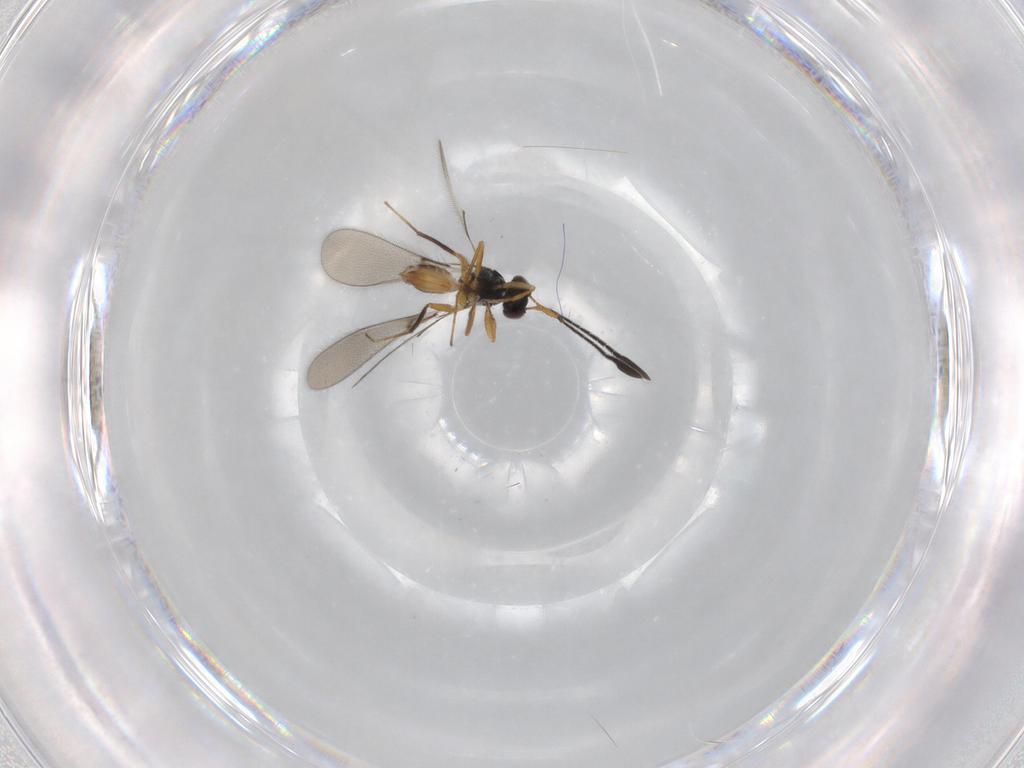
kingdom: Animalia
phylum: Arthropoda
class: Insecta
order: Hymenoptera
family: Mymaridae
